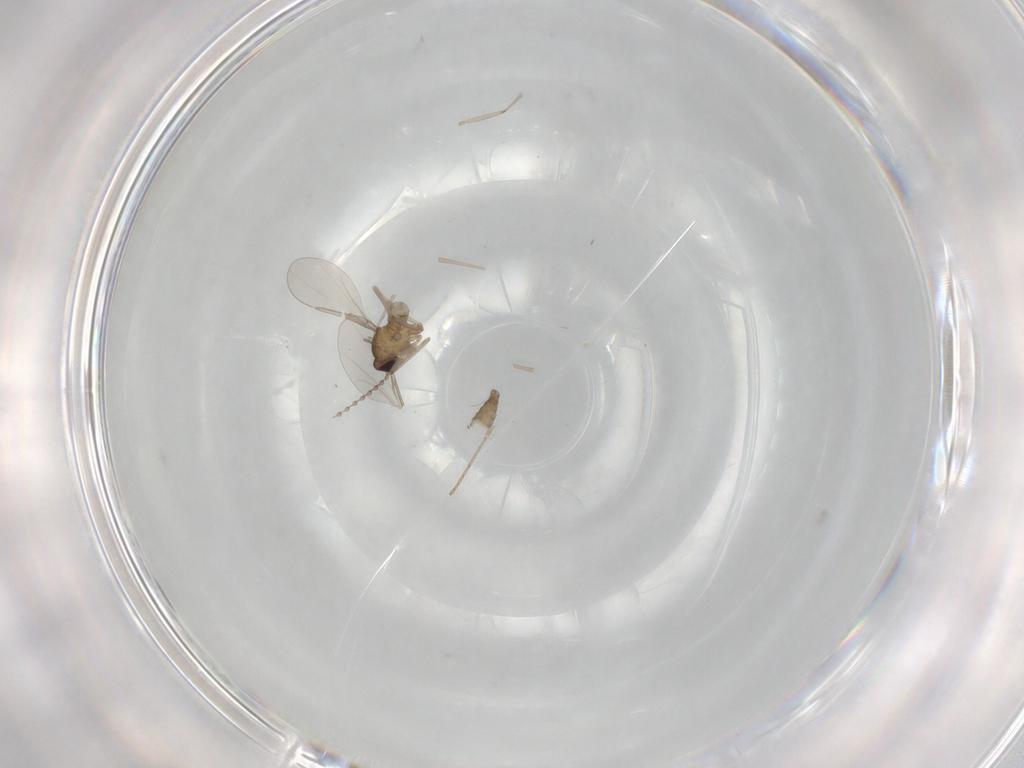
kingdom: Animalia
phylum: Arthropoda
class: Insecta
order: Diptera
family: Cecidomyiidae
